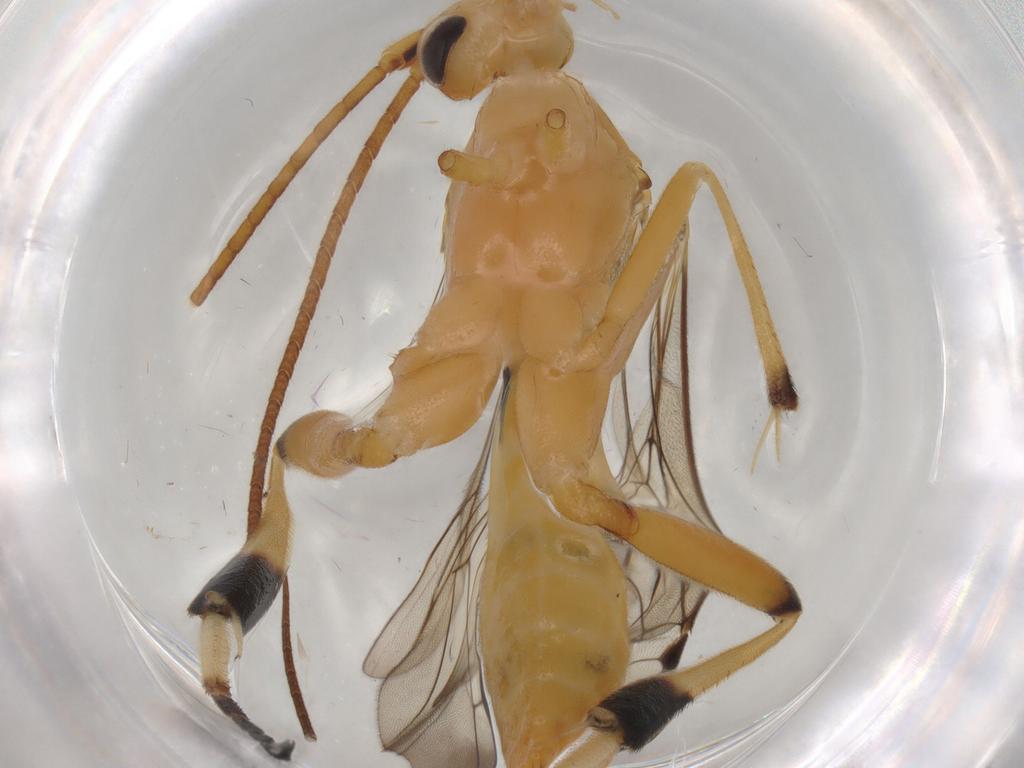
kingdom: Animalia
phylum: Arthropoda
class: Insecta
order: Hymenoptera
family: Braconidae
